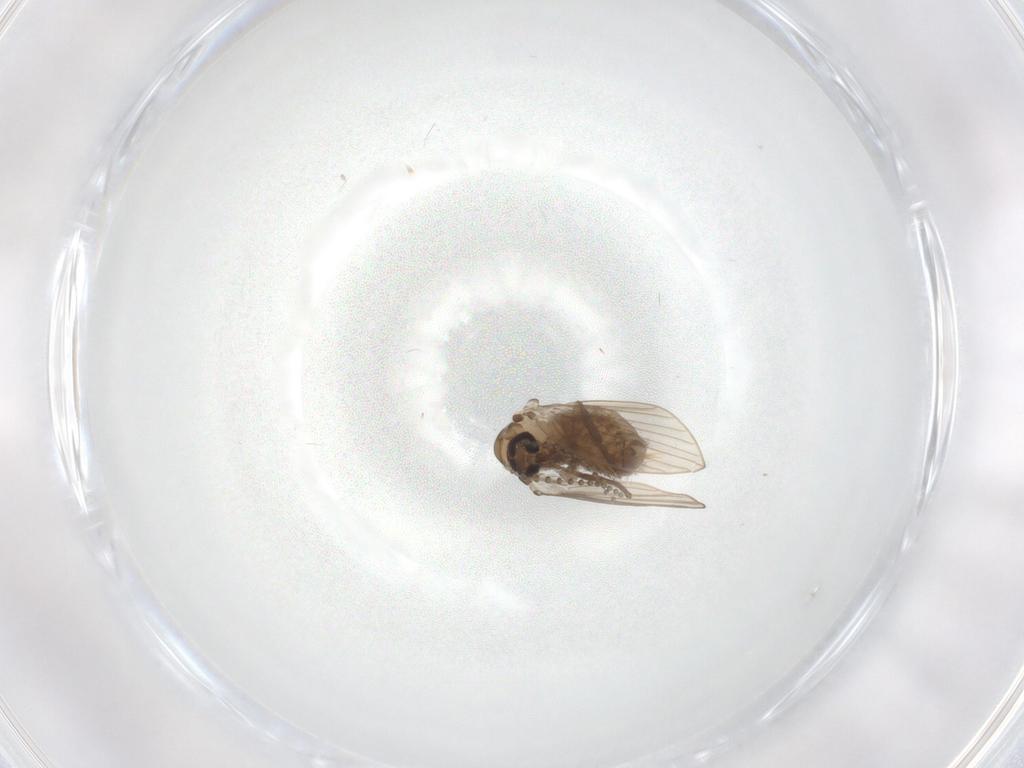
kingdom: Animalia
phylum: Arthropoda
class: Insecta
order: Diptera
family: Psychodidae
